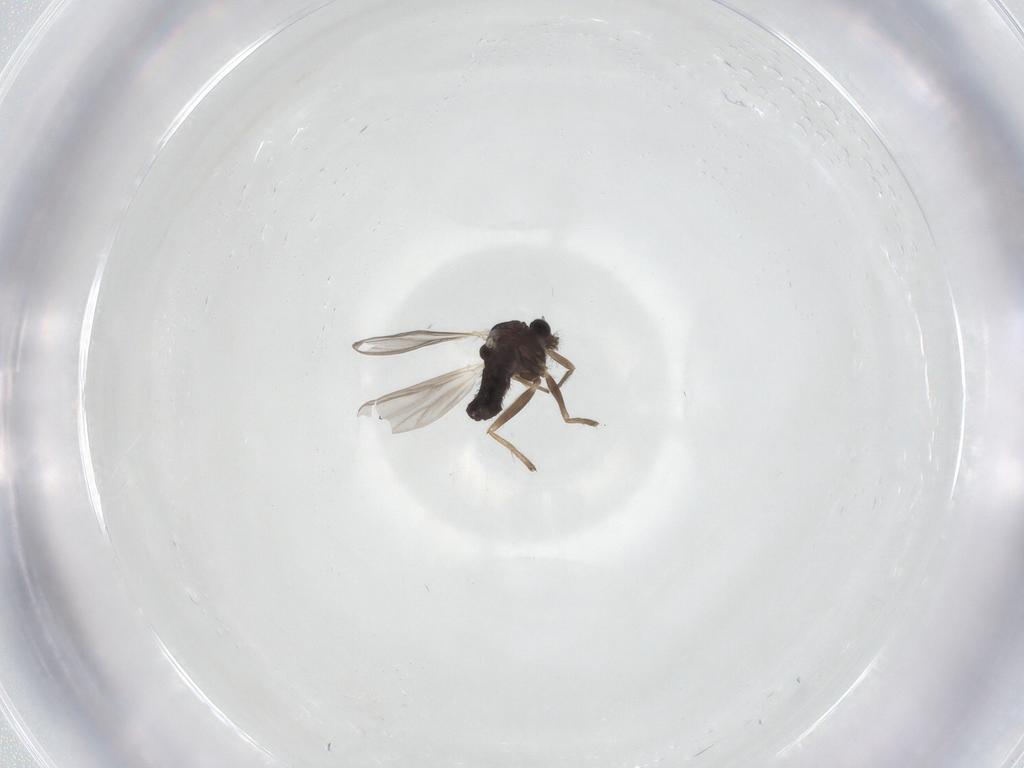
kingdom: Animalia
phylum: Arthropoda
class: Insecta
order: Diptera
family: Chironomidae
